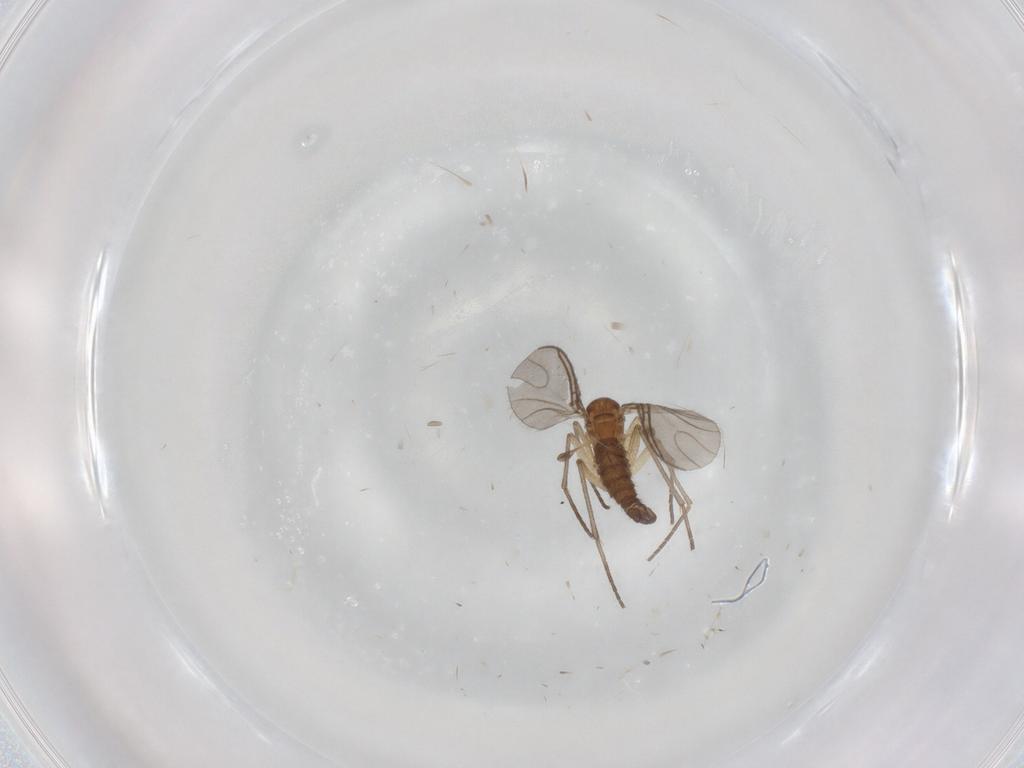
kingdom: Animalia
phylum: Arthropoda
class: Insecta
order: Diptera
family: Sciaridae
